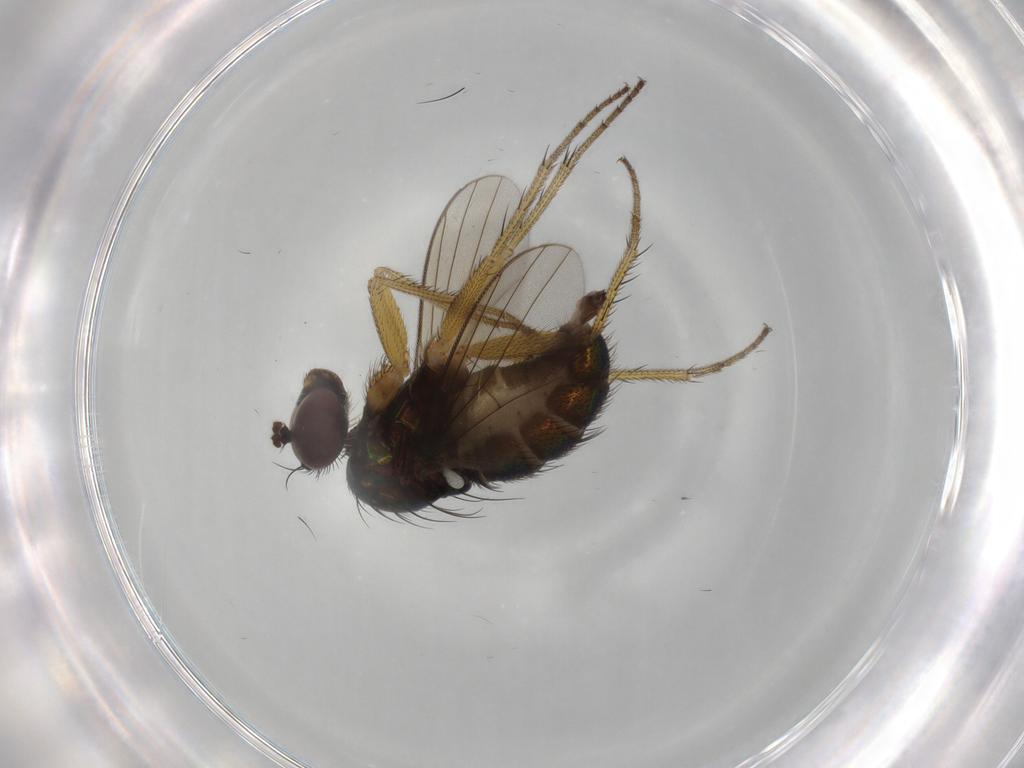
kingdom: Animalia
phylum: Arthropoda
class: Insecta
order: Diptera
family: Dolichopodidae
